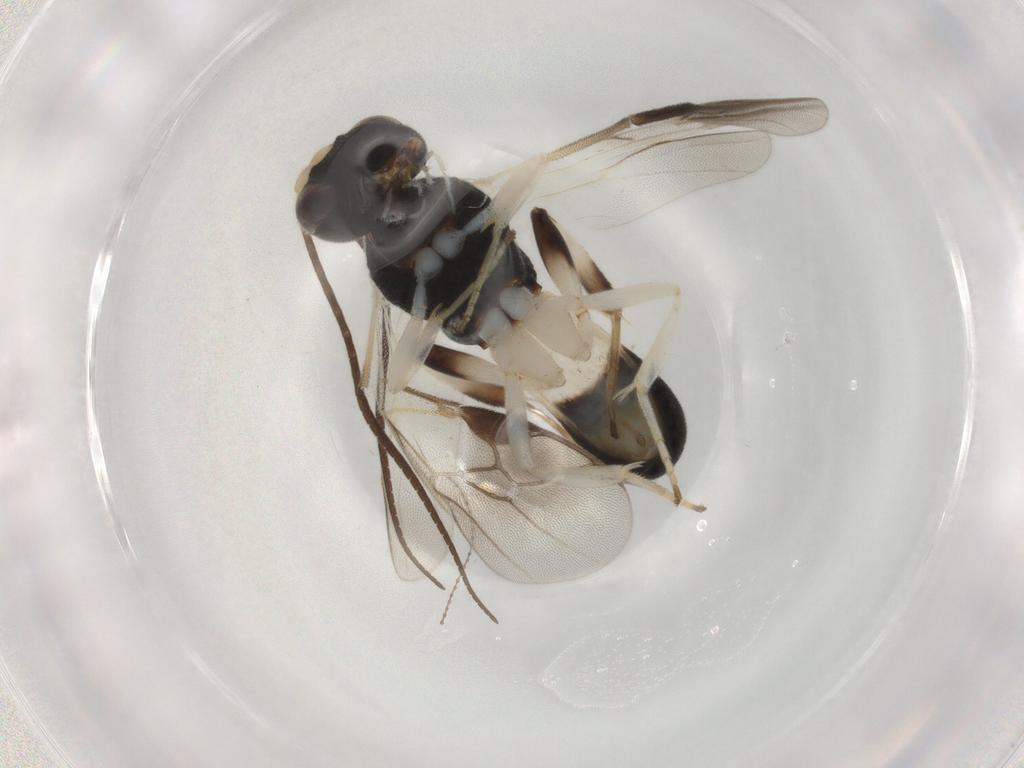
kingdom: Animalia
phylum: Arthropoda
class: Insecta
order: Hymenoptera
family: Braconidae
